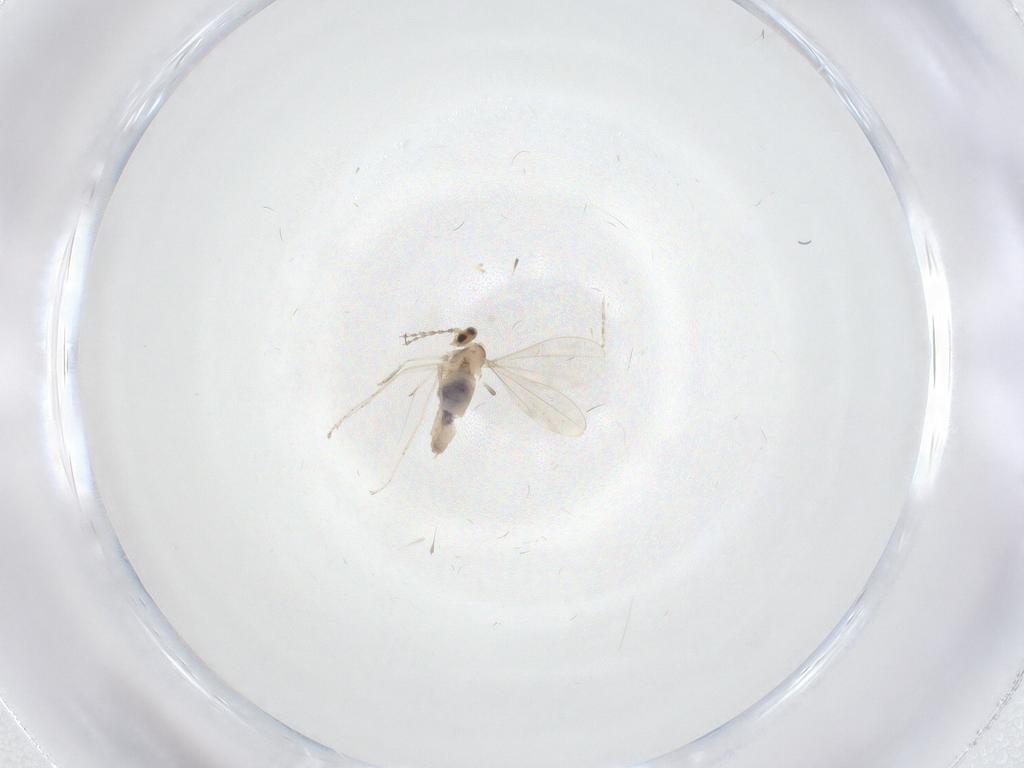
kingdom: Animalia
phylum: Arthropoda
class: Insecta
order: Diptera
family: Cecidomyiidae
